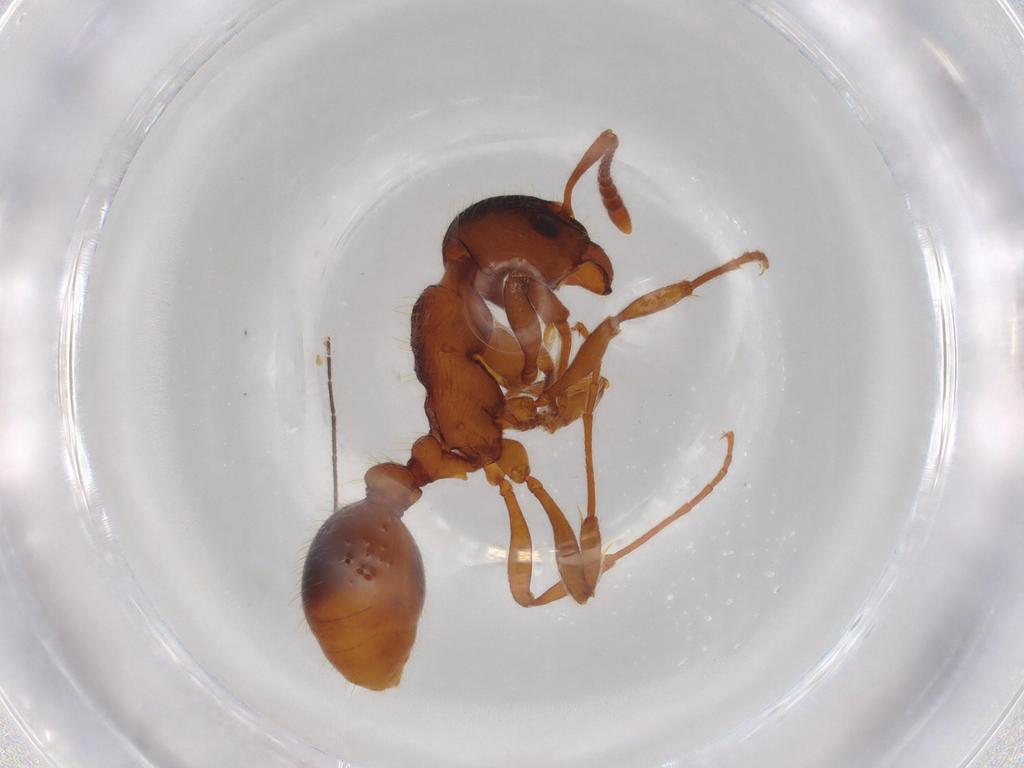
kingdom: Animalia
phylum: Arthropoda
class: Insecta
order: Hymenoptera
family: Formicidae
